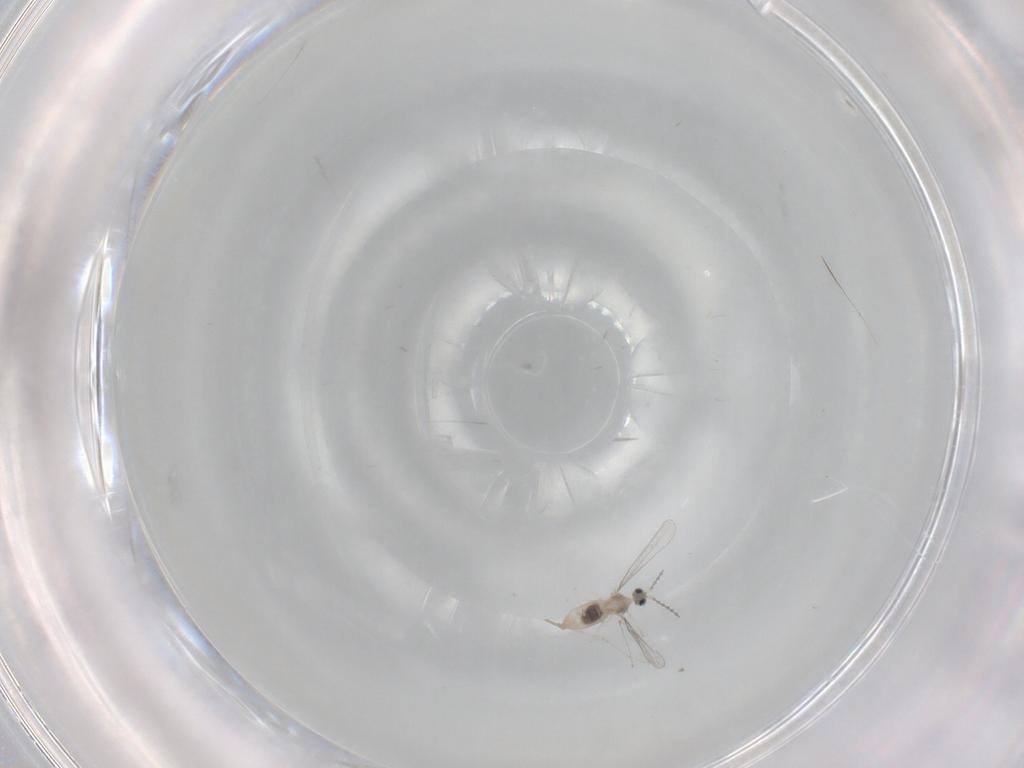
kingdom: Animalia
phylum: Arthropoda
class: Insecta
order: Diptera
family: Cecidomyiidae
